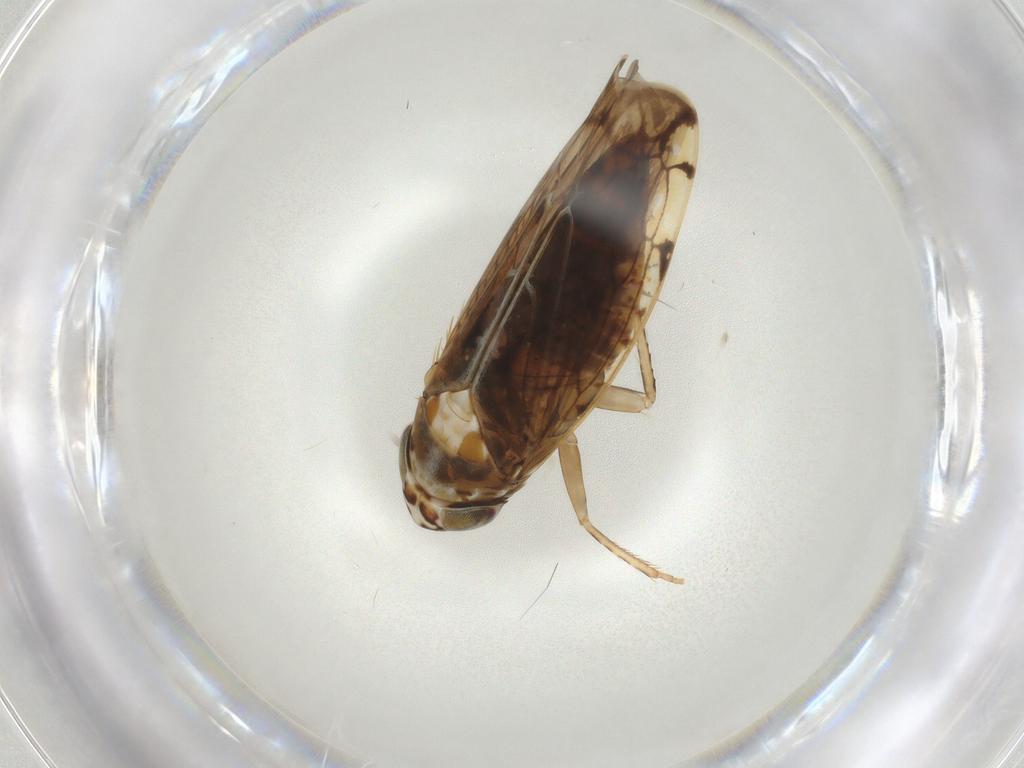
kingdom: Animalia
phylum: Arthropoda
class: Insecta
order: Hemiptera
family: Cicadellidae
